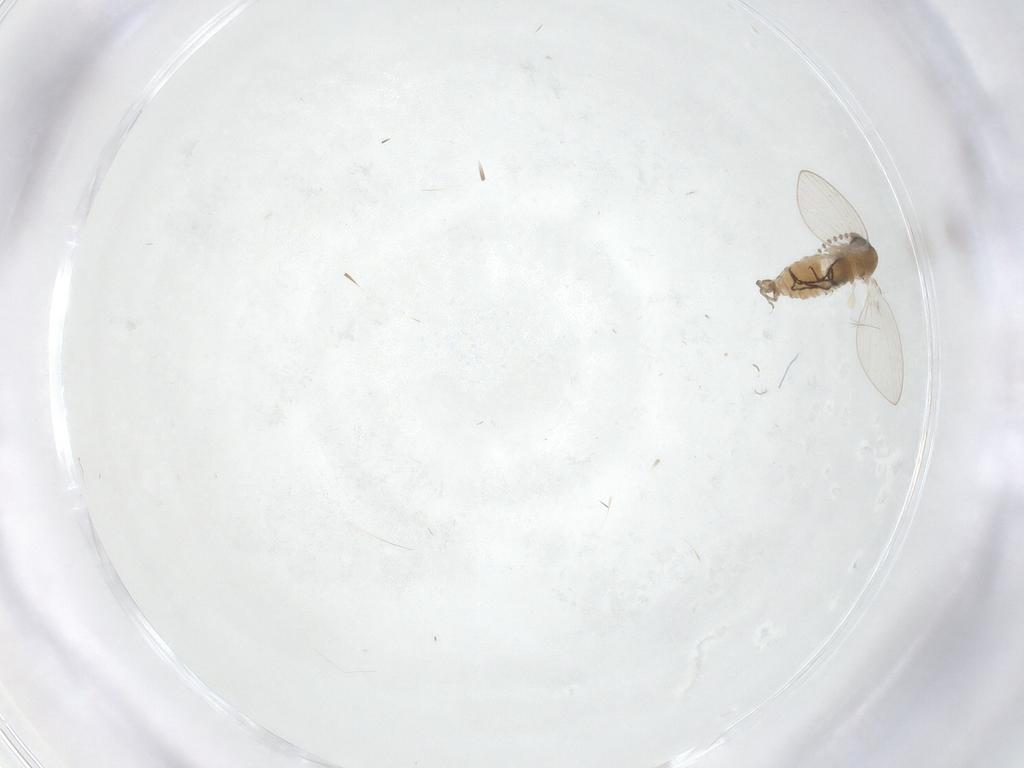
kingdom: Animalia
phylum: Arthropoda
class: Insecta
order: Diptera
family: Psychodidae
